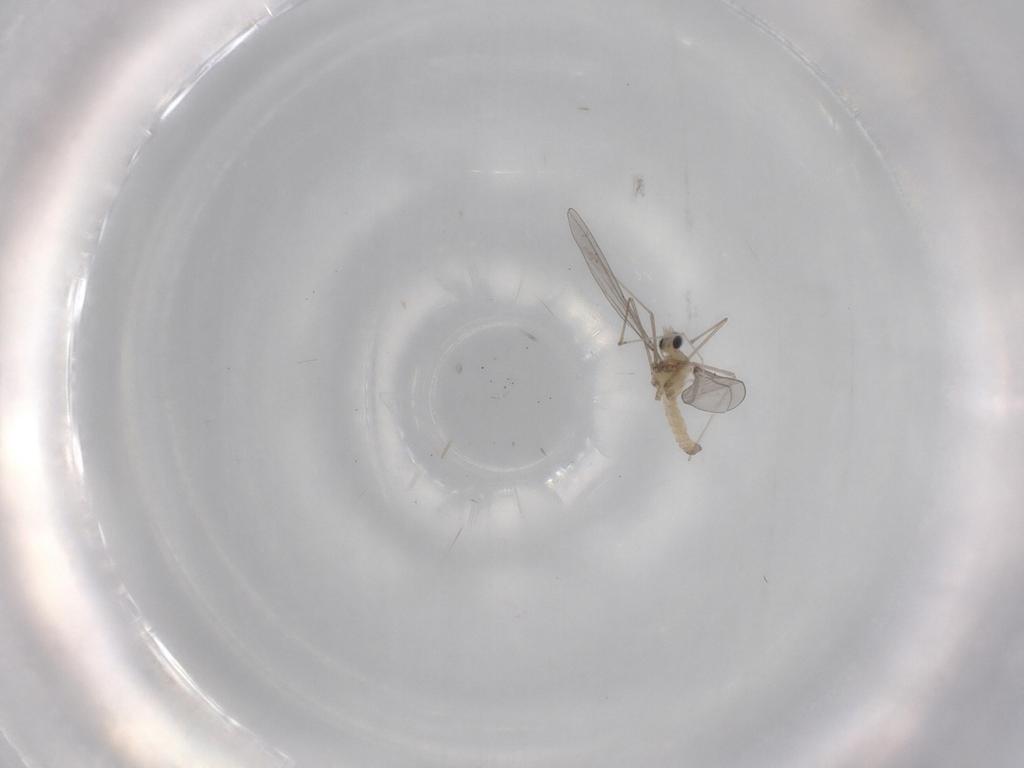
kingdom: Animalia
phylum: Arthropoda
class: Insecta
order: Diptera
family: Cecidomyiidae
